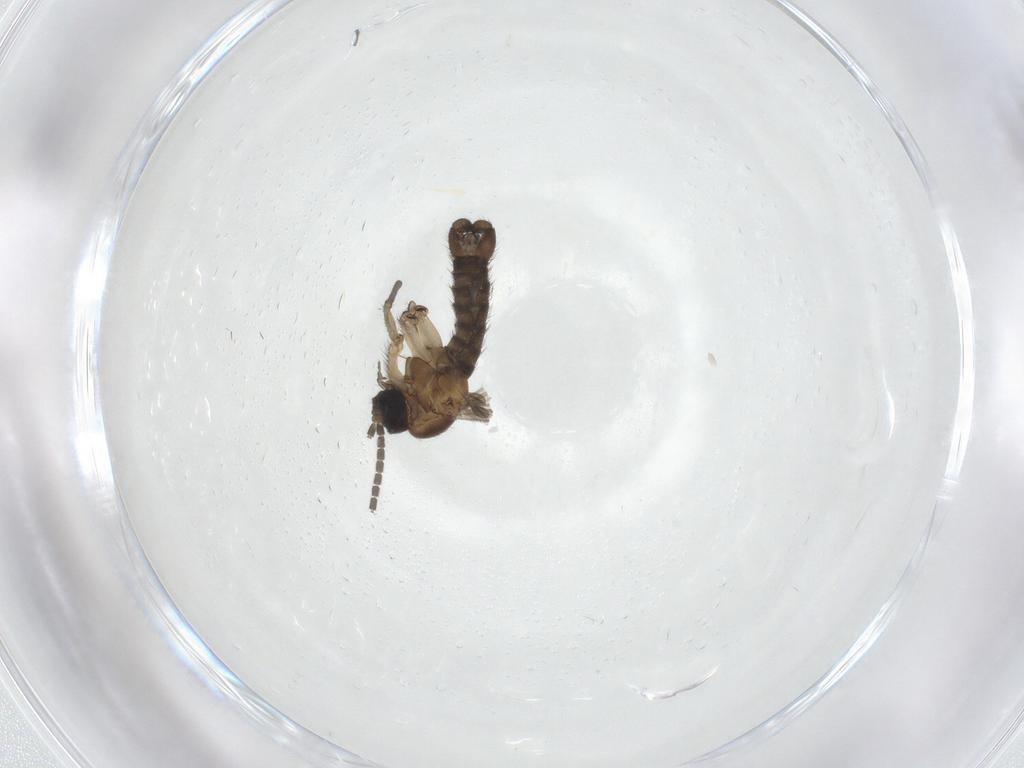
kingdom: Animalia
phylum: Arthropoda
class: Insecta
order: Diptera
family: Sciaridae
